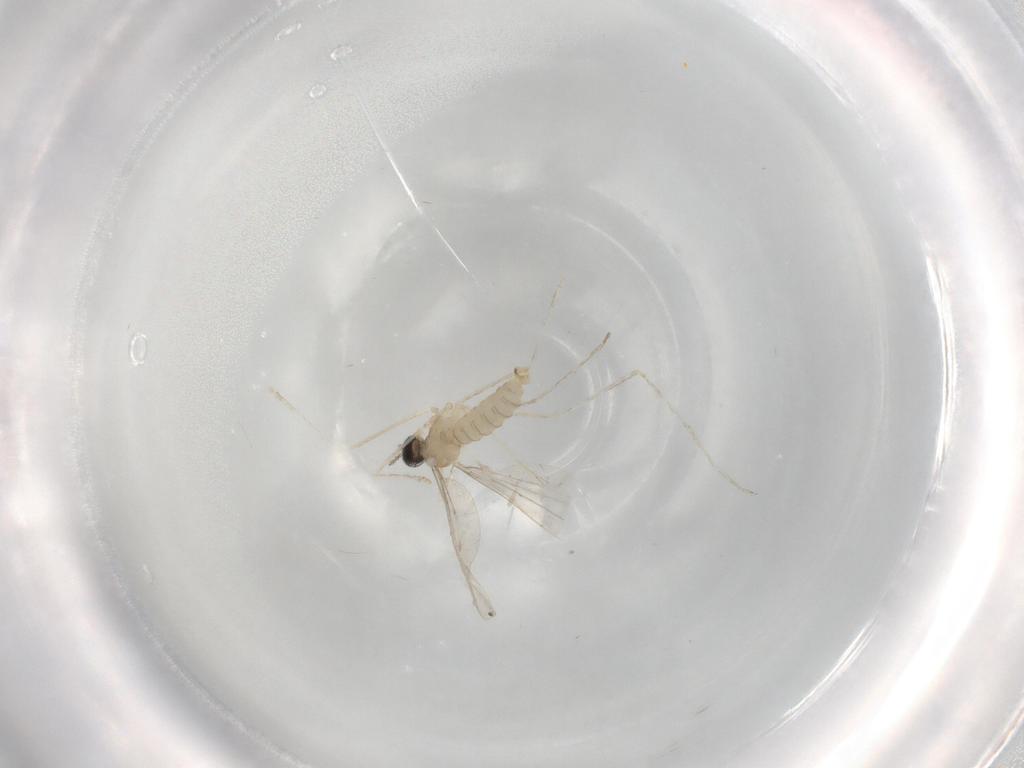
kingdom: Animalia
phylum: Arthropoda
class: Insecta
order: Diptera
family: Cecidomyiidae
